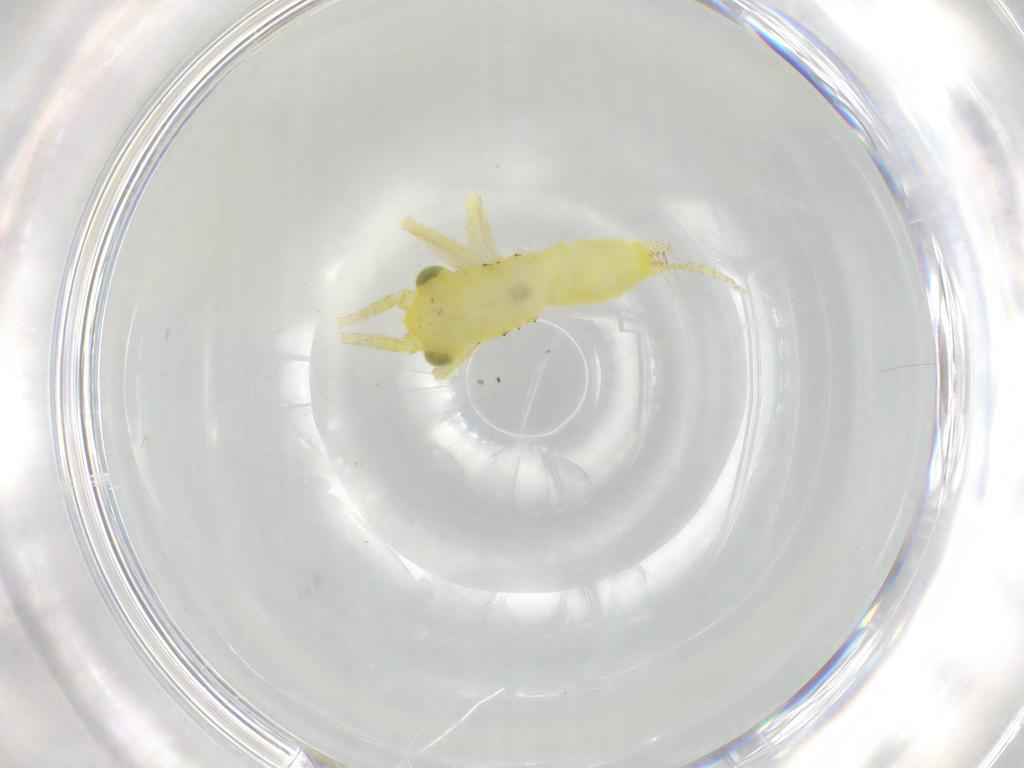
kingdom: Animalia
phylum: Arthropoda
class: Insecta
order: Orthoptera
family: Trigonidiidae
